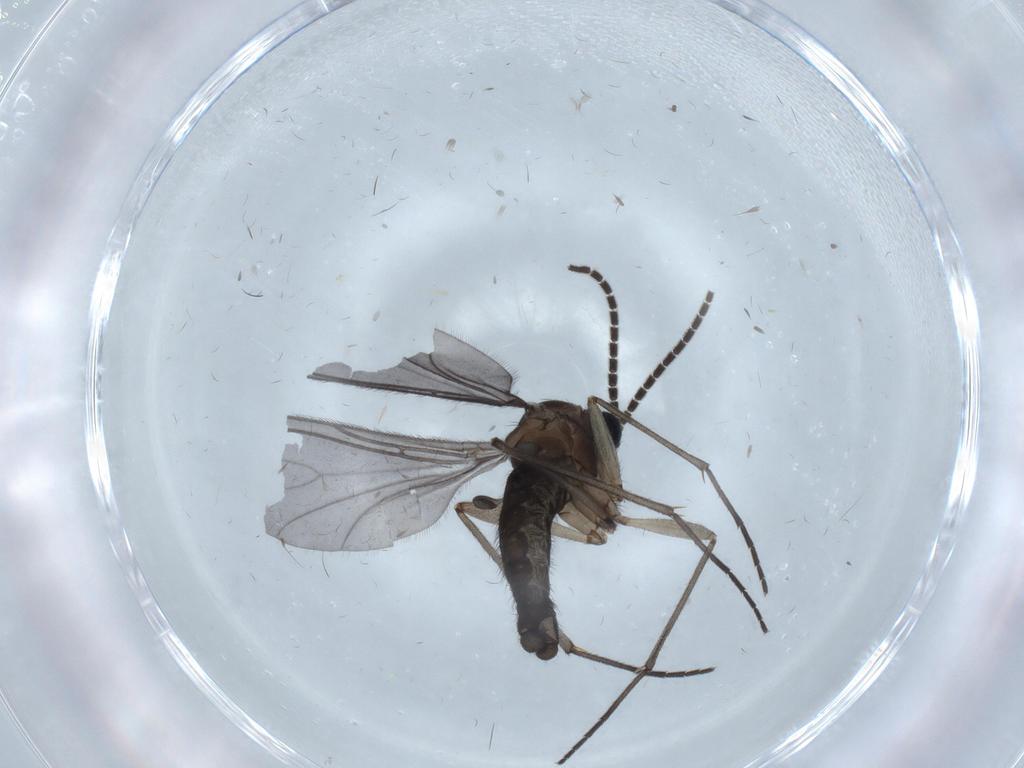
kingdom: Animalia
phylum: Arthropoda
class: Insecta
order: Diptera
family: Sciaridae
